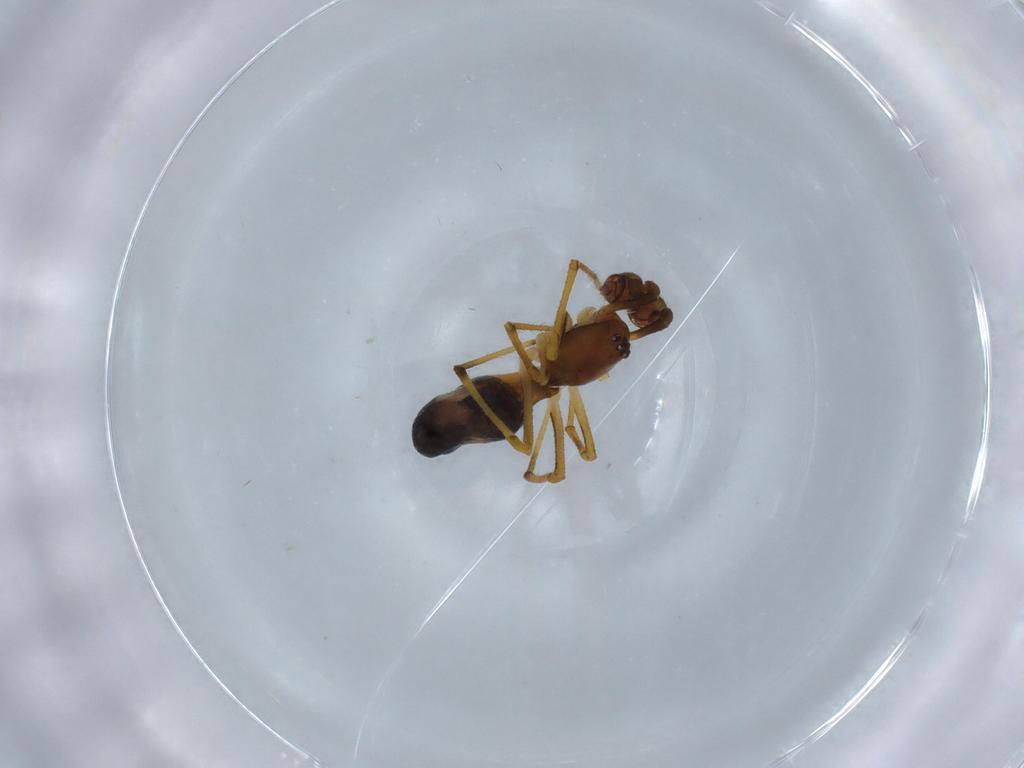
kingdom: Animalia
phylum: Arthropoda
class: Arachnida
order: Araneae
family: Theridiidae
